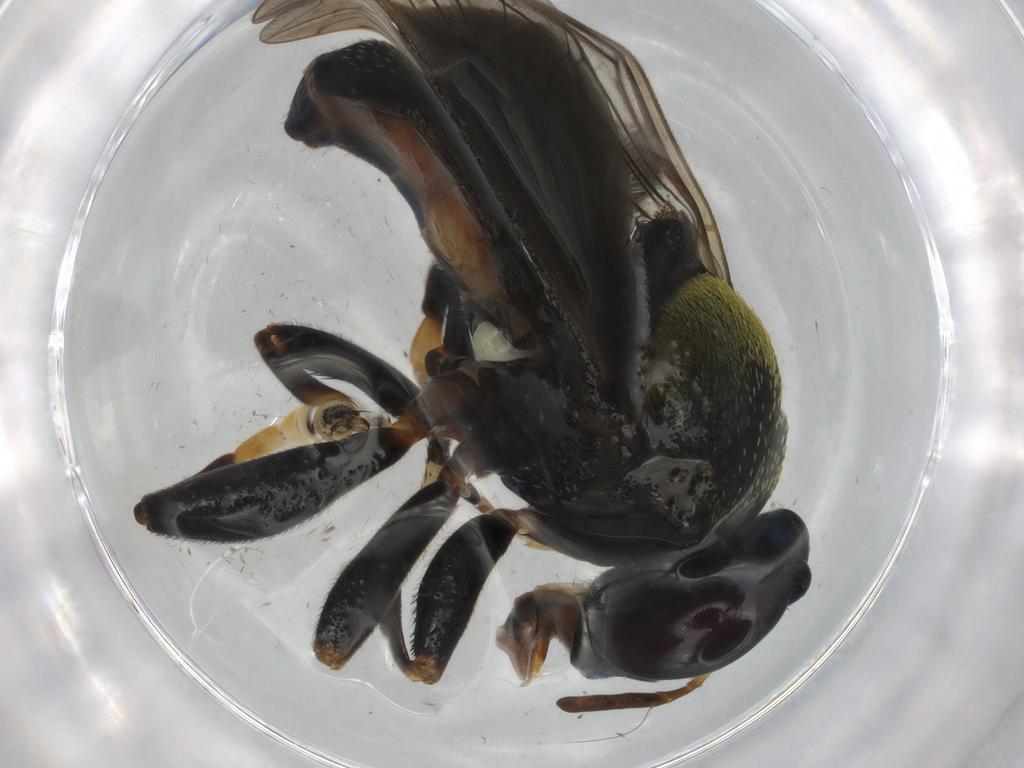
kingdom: Animalia
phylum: Arthropoda
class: Insecta
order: Diptera
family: Syrphidae
